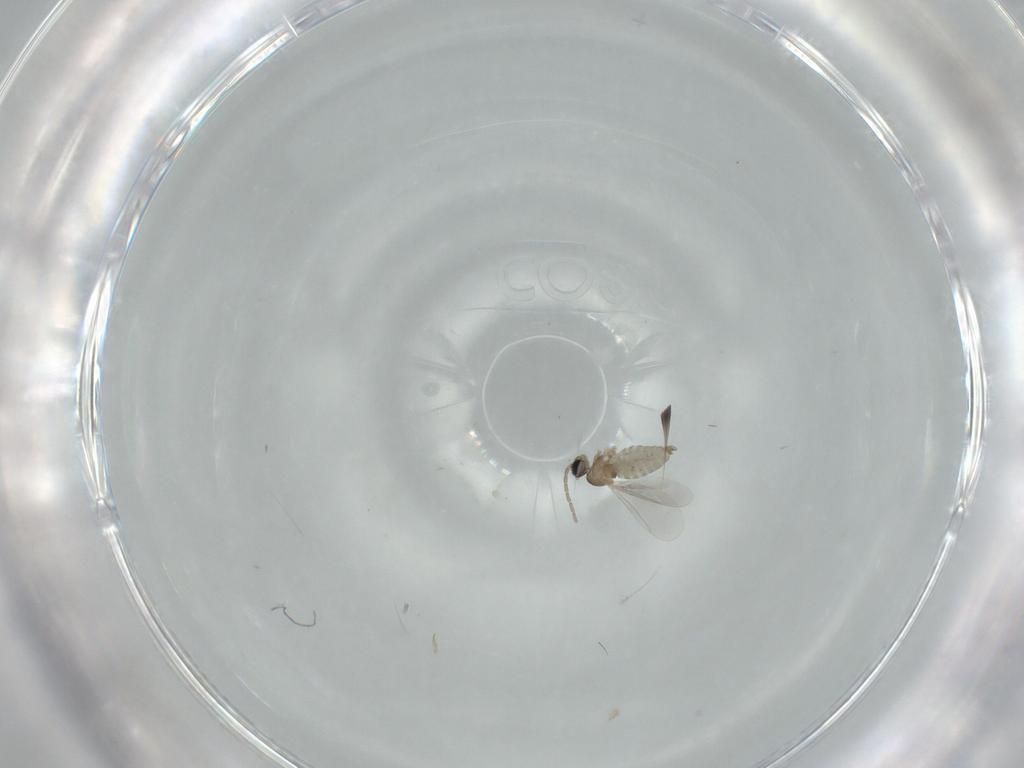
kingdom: Animalia
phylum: Arthropoda
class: Insecta
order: Diptera
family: Cecidomyiidae
